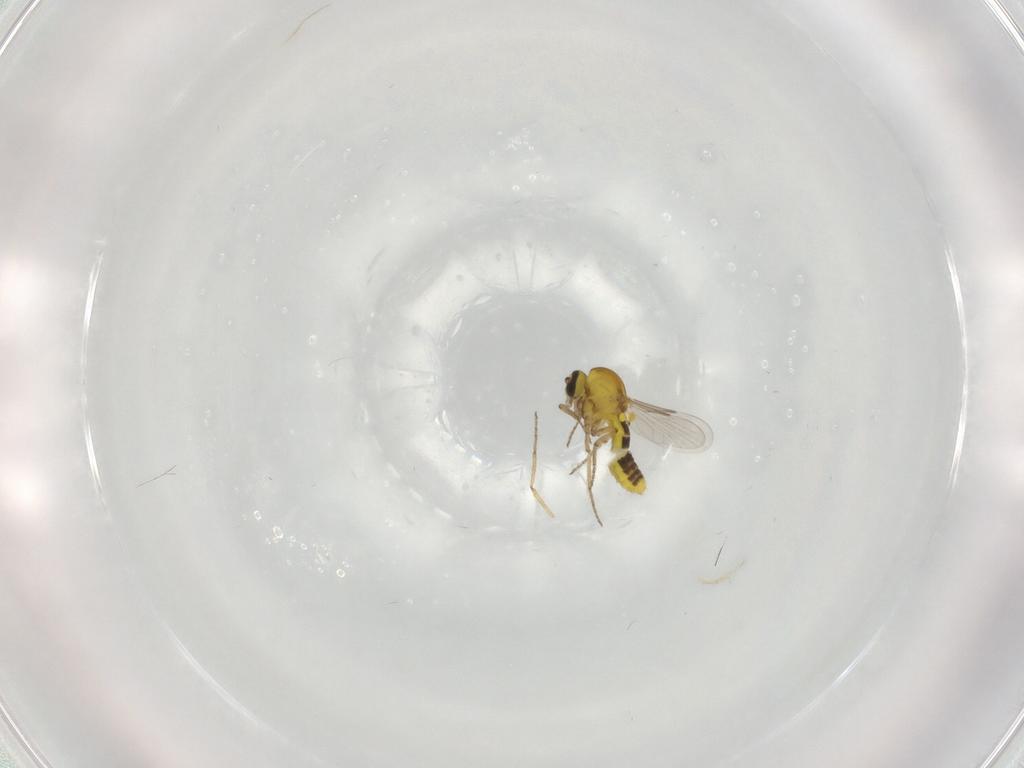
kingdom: Animalia
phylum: Arthropoda
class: Insecta
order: Diptera
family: Ceratopogonidae
